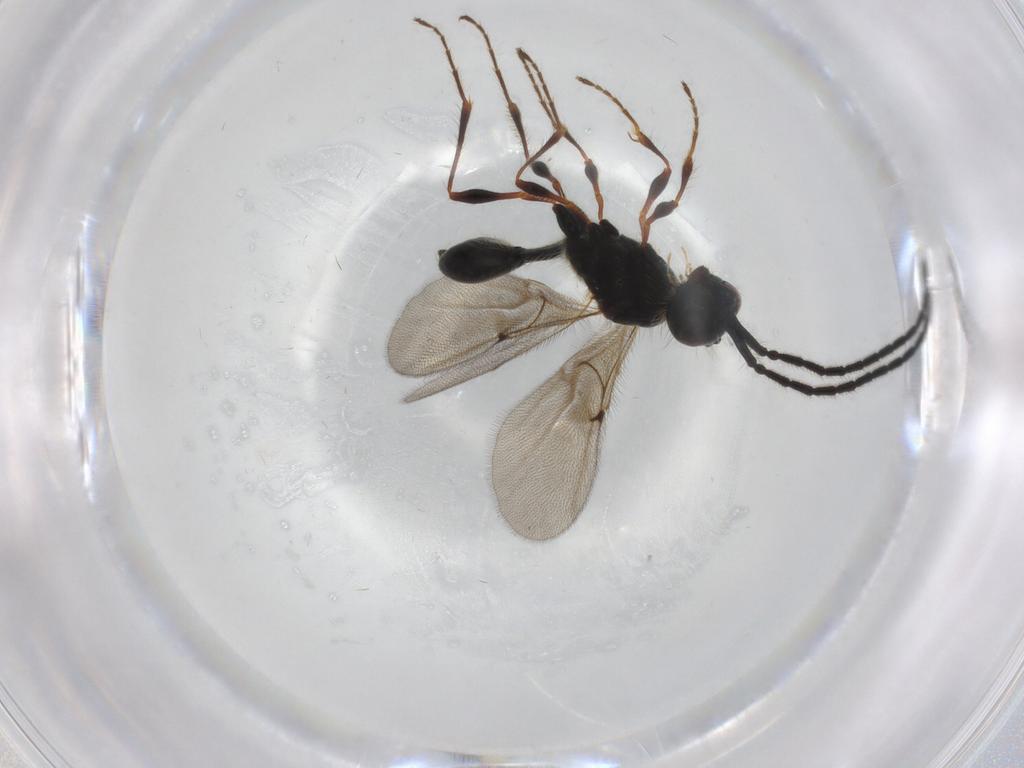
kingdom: Animalia
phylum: Arthropoda
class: Insecta
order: Hymenoptera
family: Diapriidae
